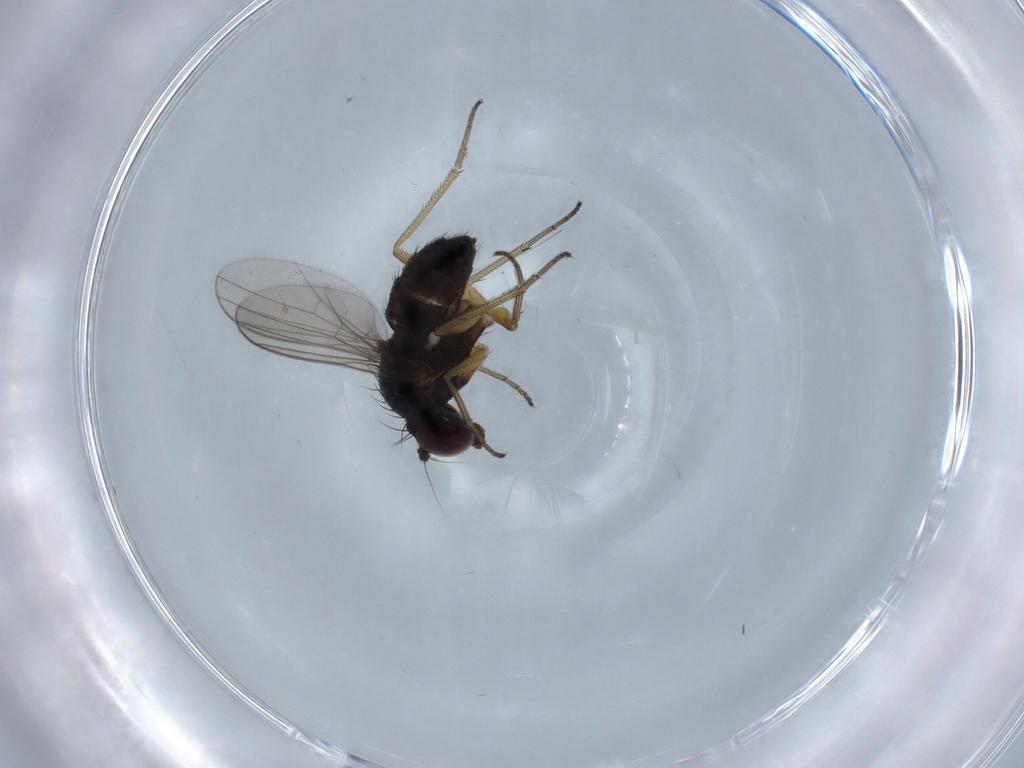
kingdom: Animalia
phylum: Arthropoda
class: Insecta
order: Diptera
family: Dolichopodidae
